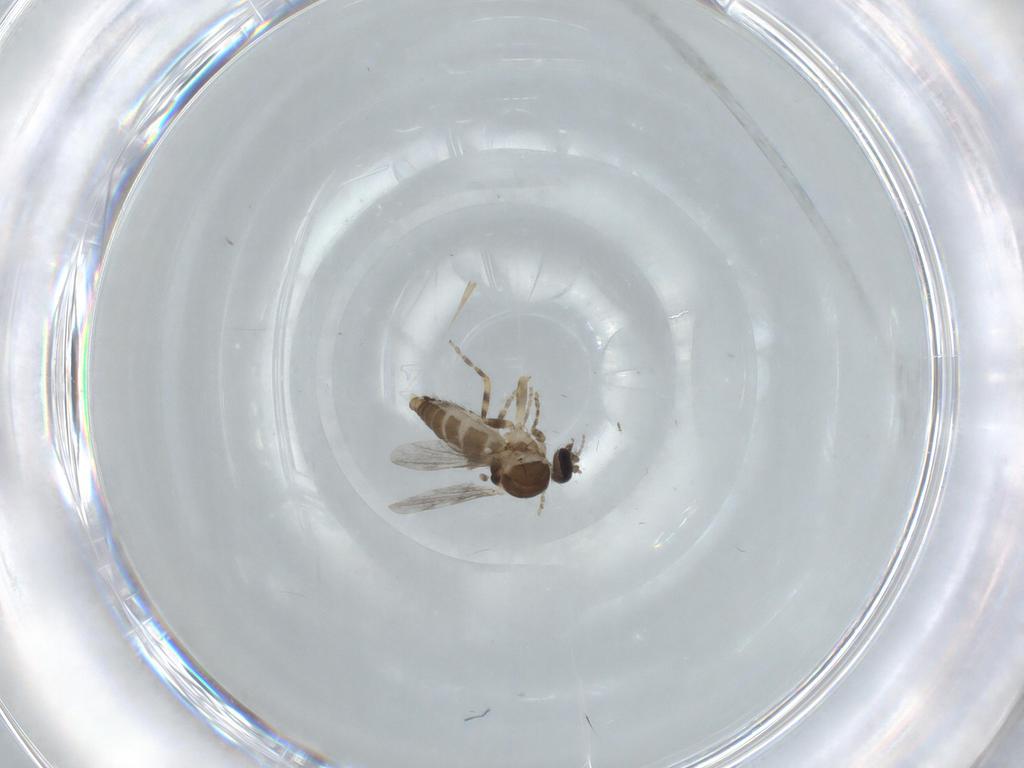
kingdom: Animalia
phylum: Arthropoda
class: Insecta
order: Diptera
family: Ceratopogonidae
